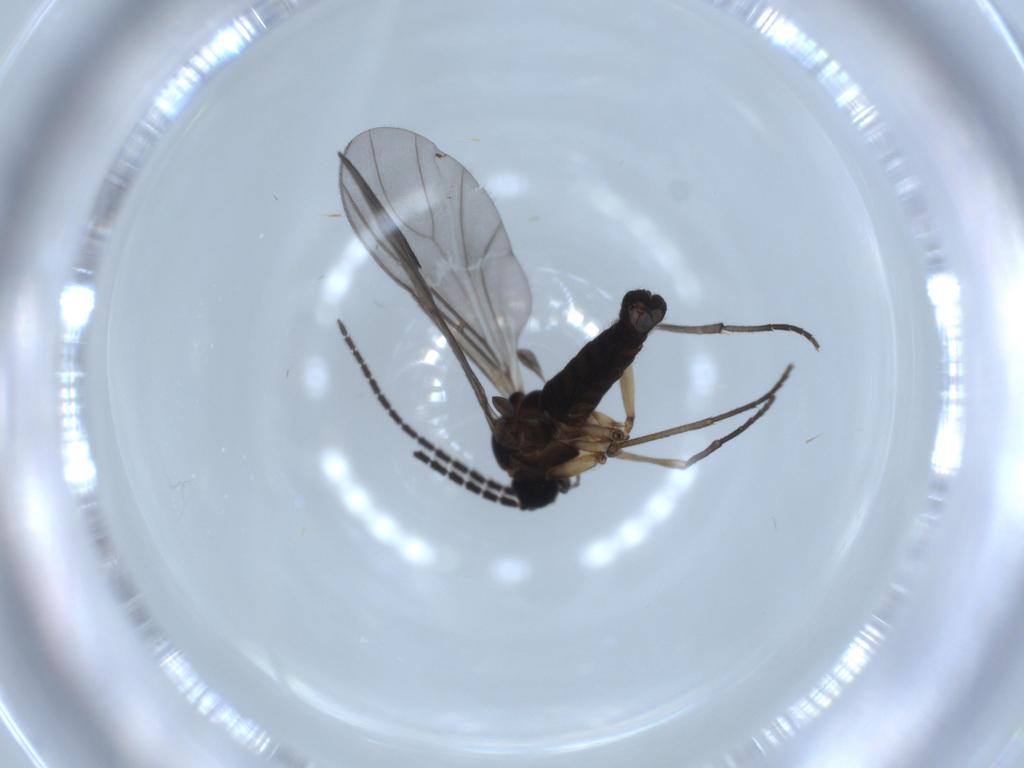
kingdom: Animalia
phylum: Arthropoda
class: Insecta
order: Diptera
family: Sciaridae
